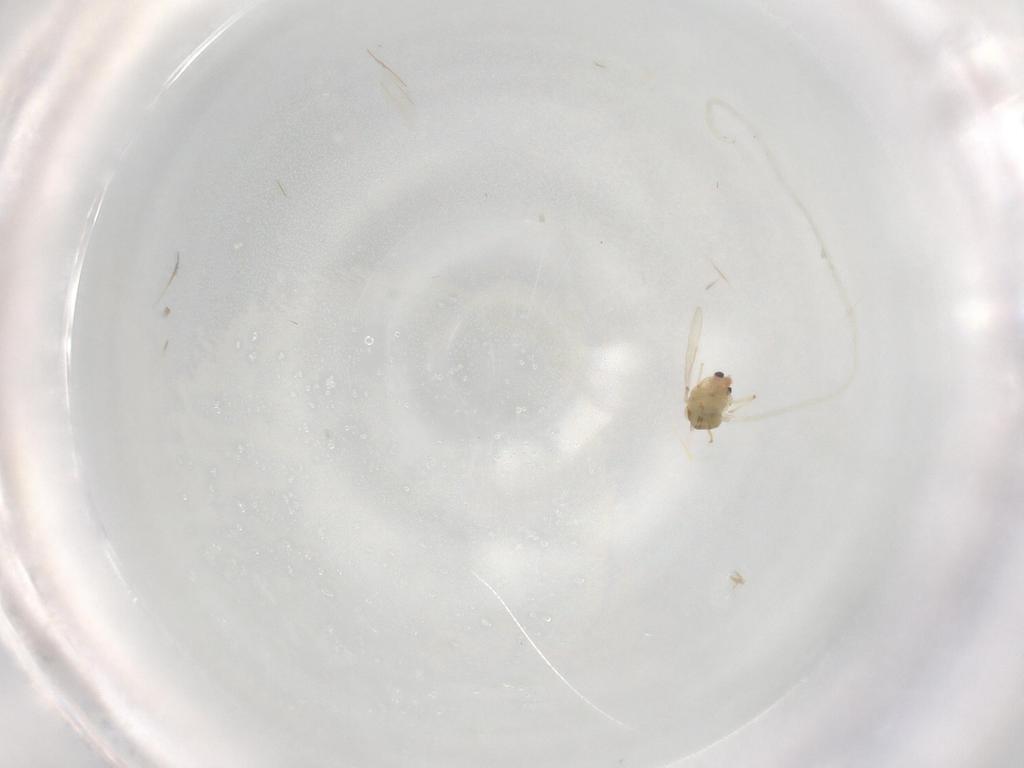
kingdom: Animalia
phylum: Arthropoda
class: Insecta
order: Diptera
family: Chironomidae
